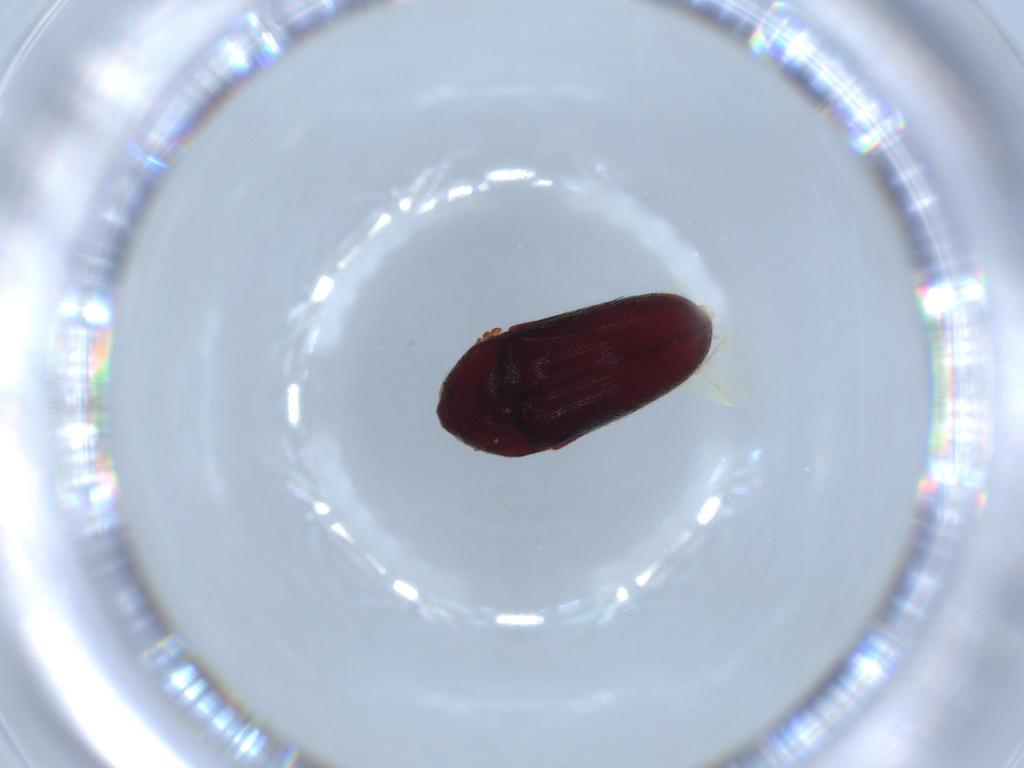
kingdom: Animalia
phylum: Arthropoda
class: Insecta
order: Coleoptera
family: Throscidae
